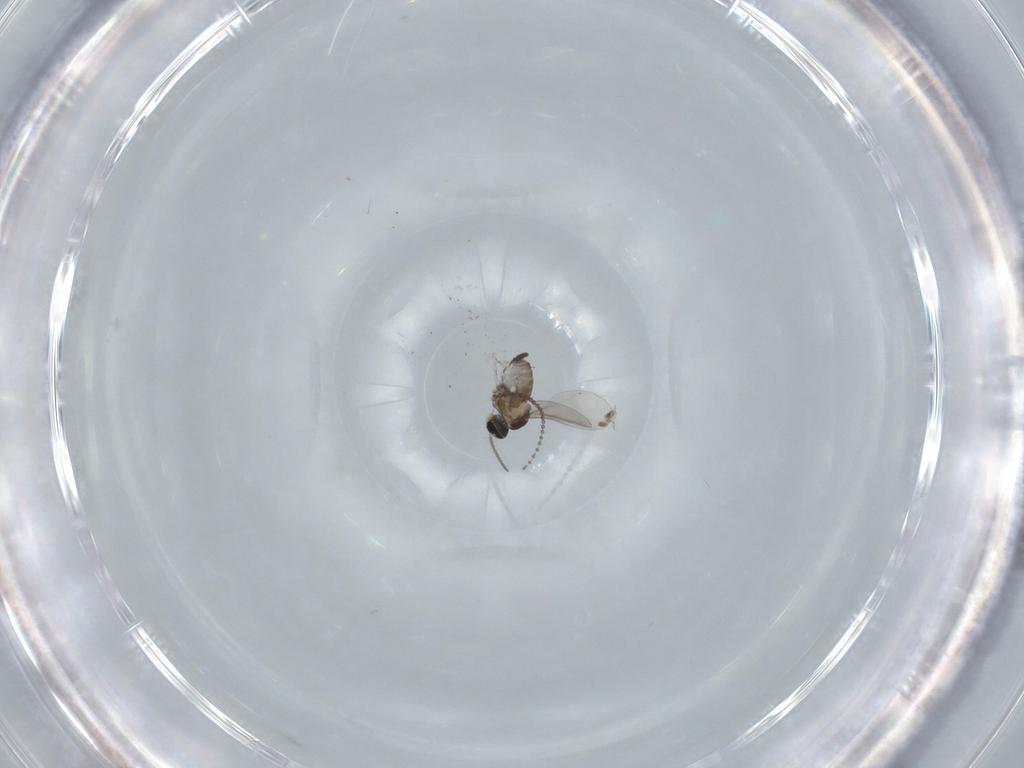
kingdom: Animalia
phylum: Arthropoda
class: Insecta
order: Diptera
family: Cecidomyiidae
